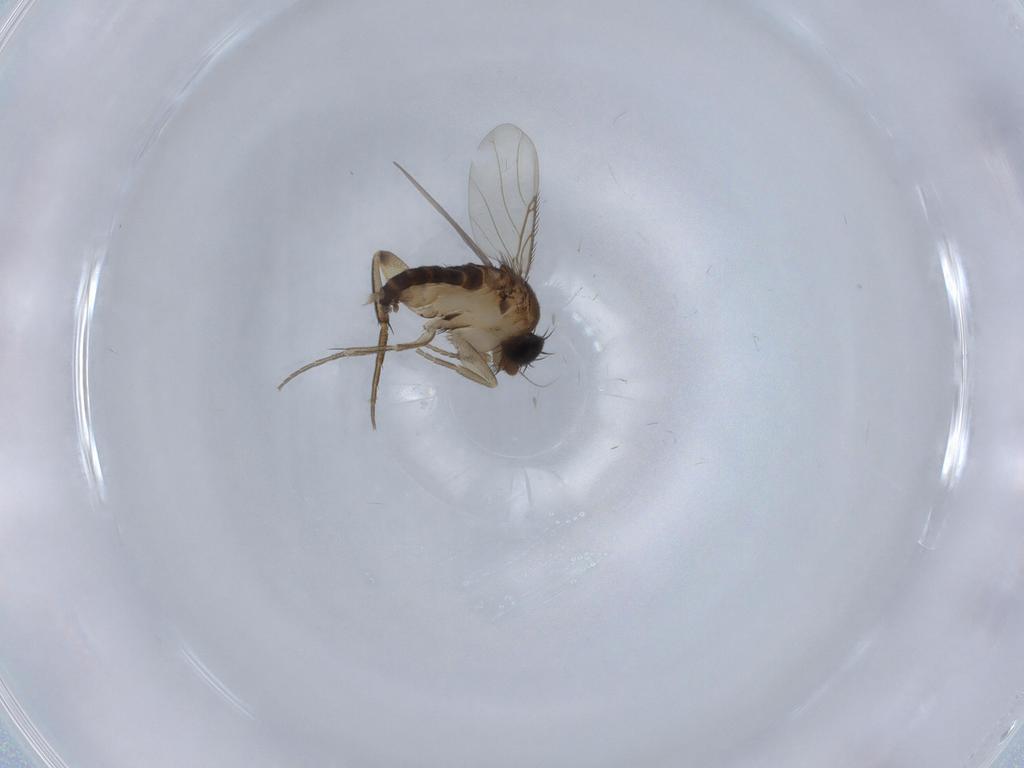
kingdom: Animalia
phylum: Arthropoda
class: Insecta
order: Diptera
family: Phoridae
